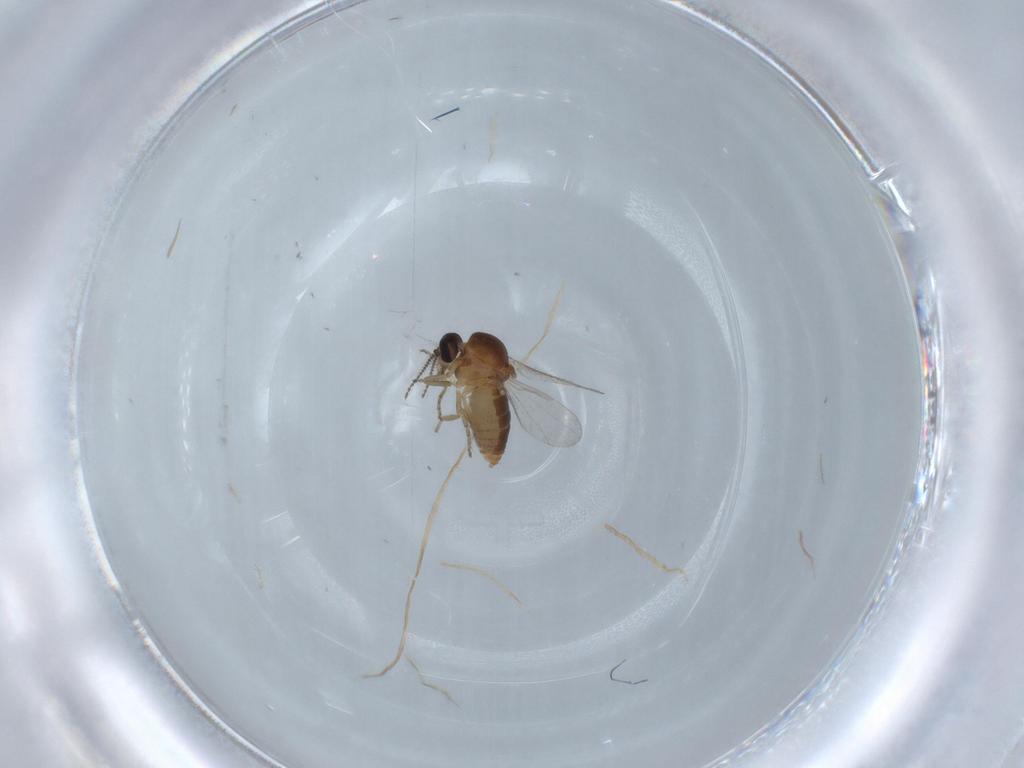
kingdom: Animalia
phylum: Arthropoda
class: Insecta
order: Diptera
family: Ceratopogonidae
